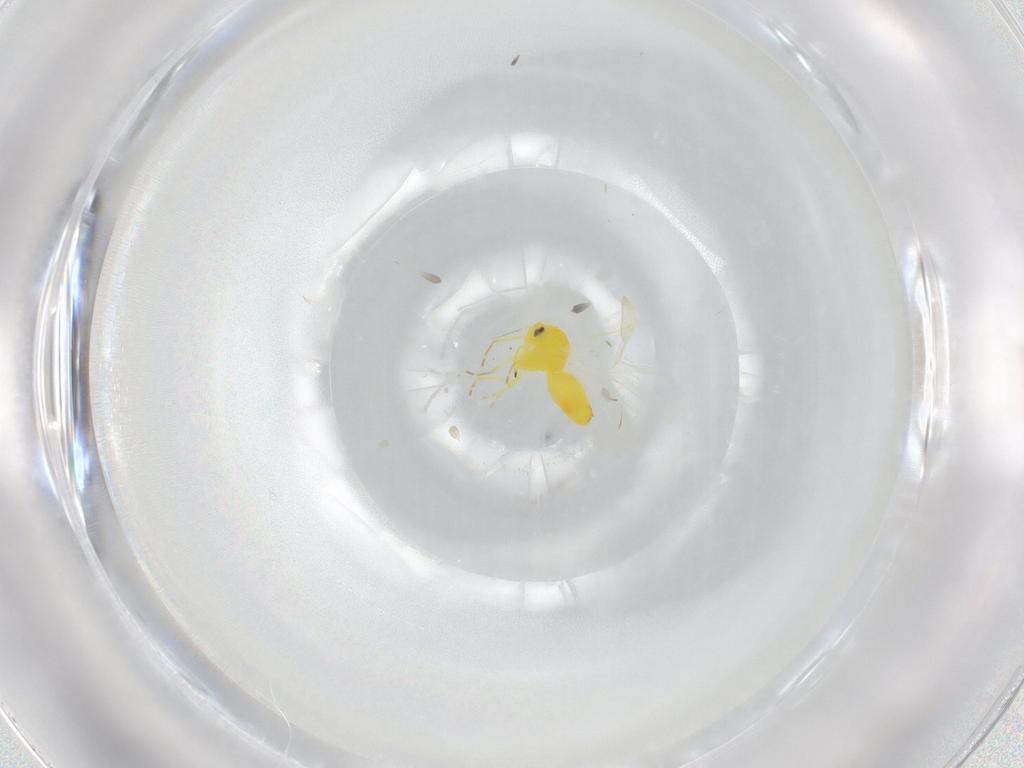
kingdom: Animalia
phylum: Arthropoda
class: Insecta
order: Hemiptera
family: Aleyrodidae
